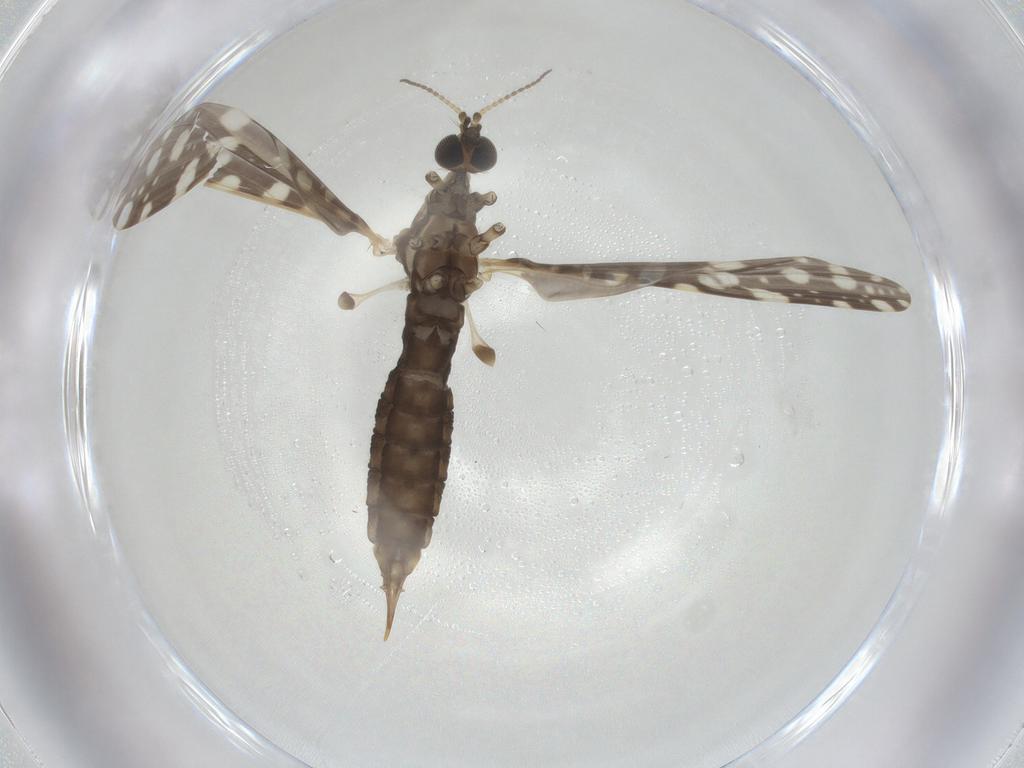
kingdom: Animalia
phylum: Arthropoda
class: Insecta
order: Diptera
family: Limoniidae
